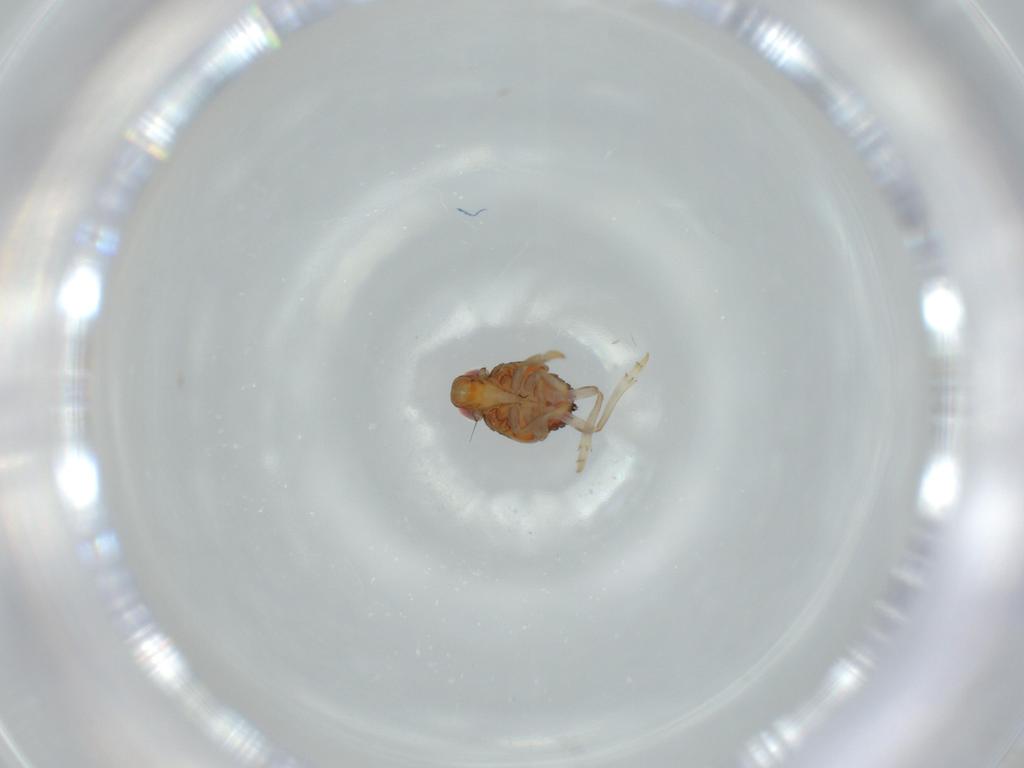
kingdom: Animalia
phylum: Arthropoda
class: Insecta
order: Hemiptera
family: Issidae
